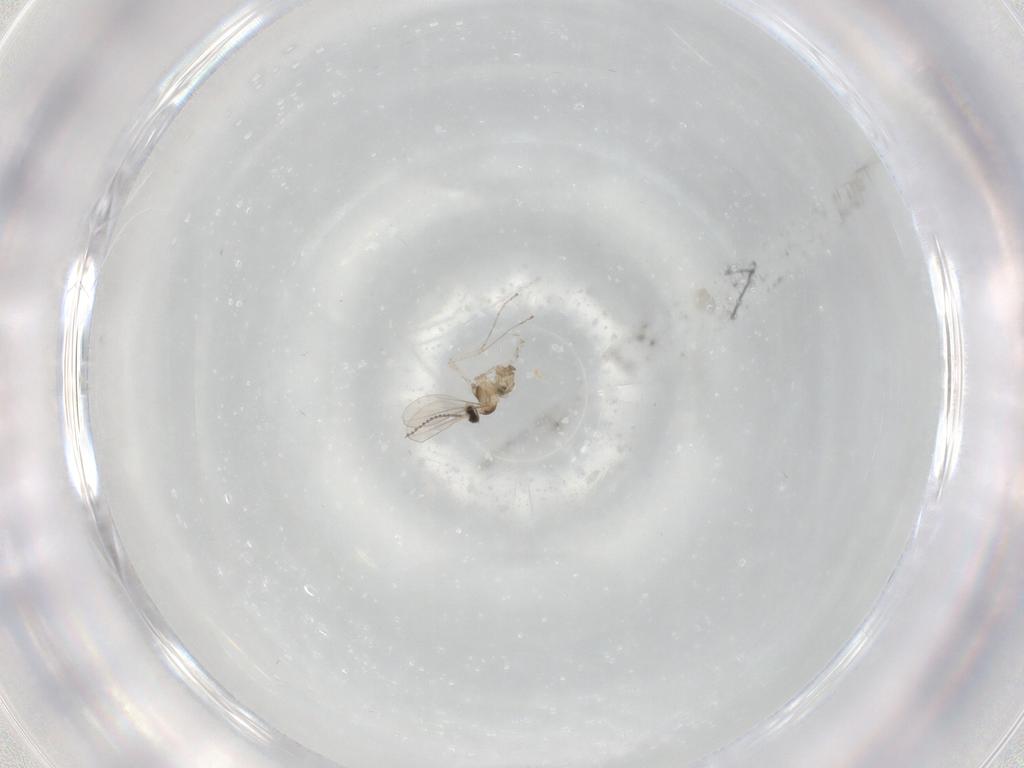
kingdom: Animalia
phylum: Arthropoda
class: Insecta
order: Diptera
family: Cecidomyiidae
